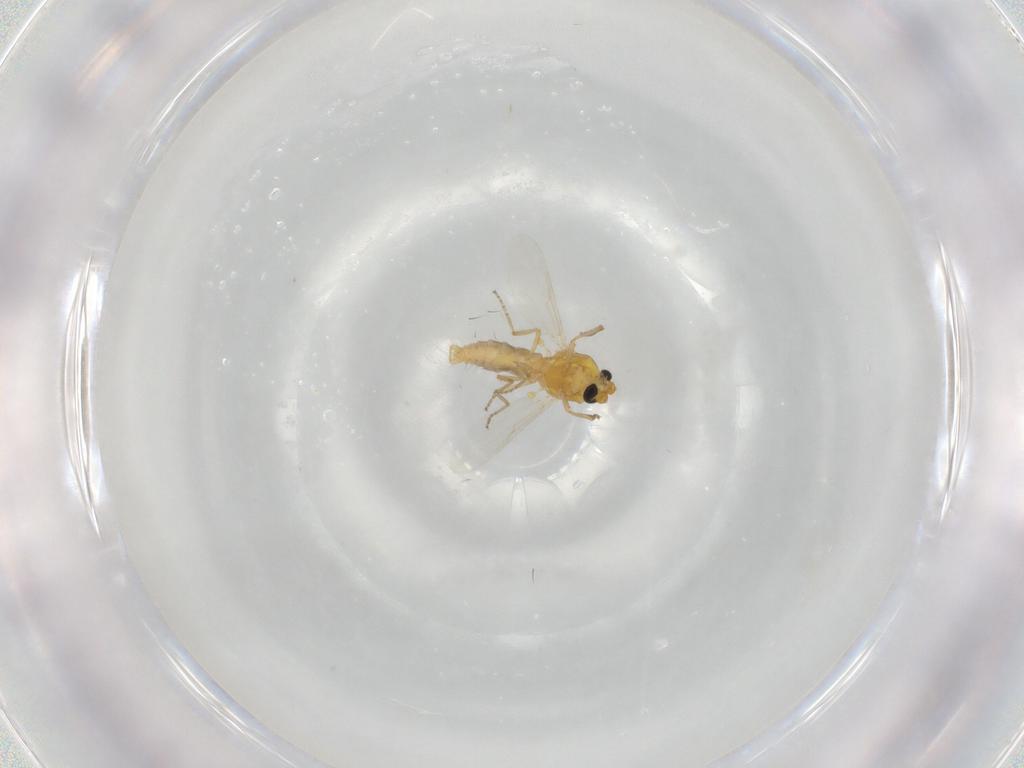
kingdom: Animalia
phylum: Arthropoda
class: Insecta
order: Diptera
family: Ceratopogonidae
